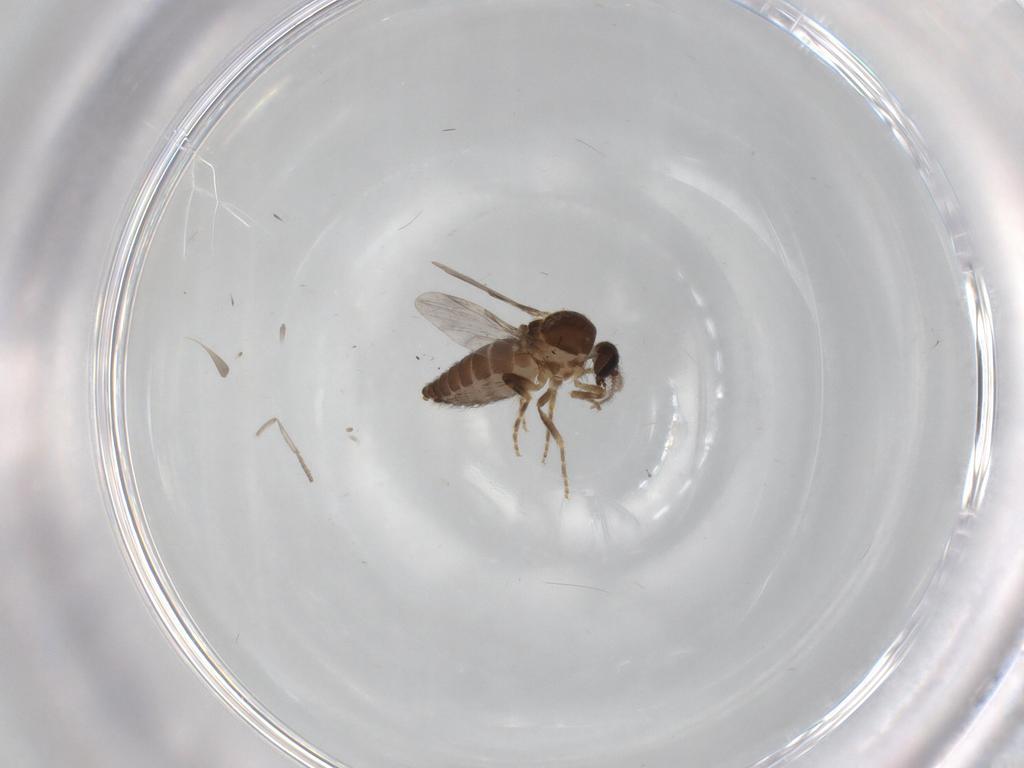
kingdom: Animalia
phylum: Arthropoda
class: Insecta
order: Diptera
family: Ceratopogonidae
